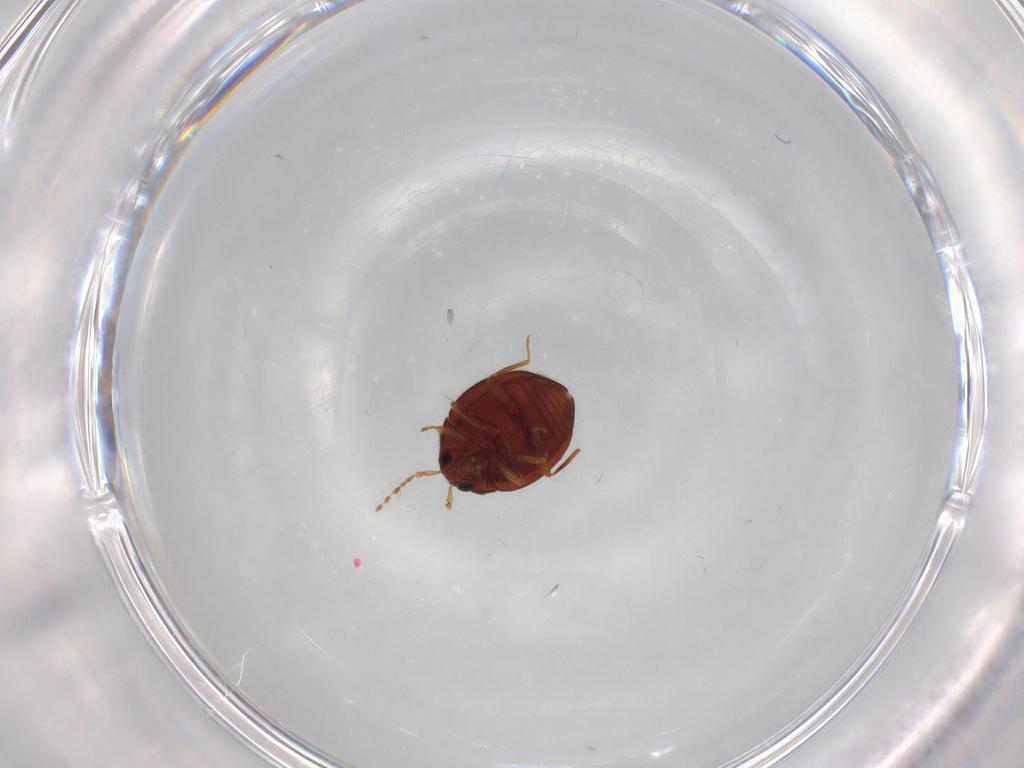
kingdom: Animalia
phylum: Arthropoda
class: Insecta
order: Coleoptera
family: Anamorphidae
